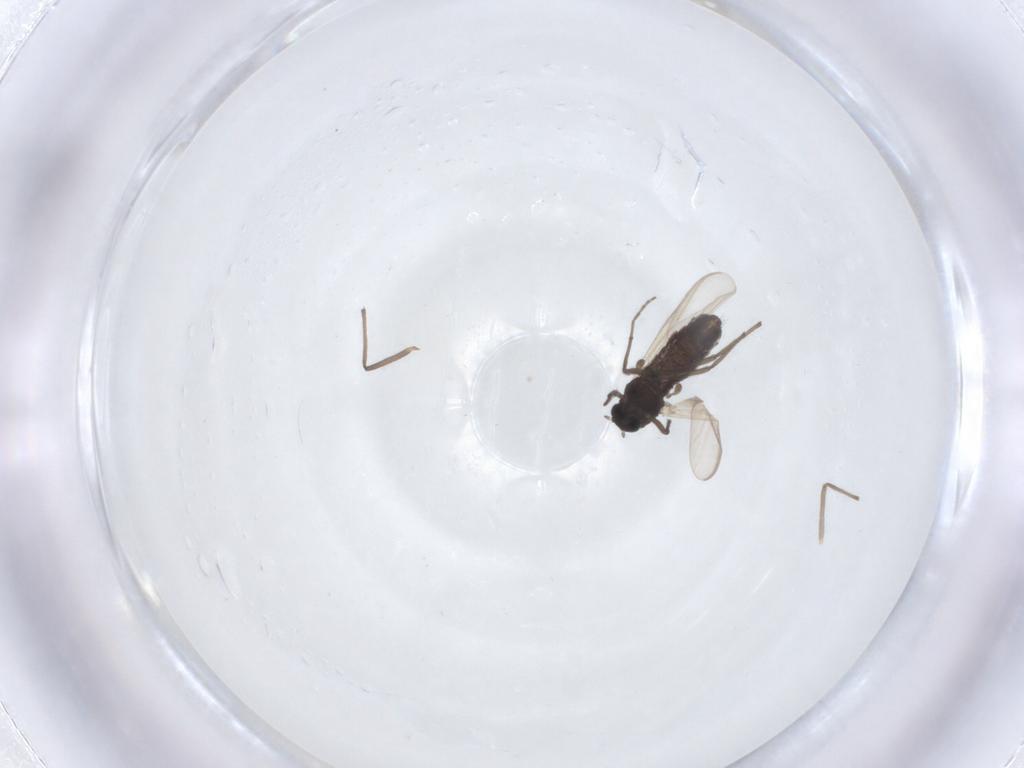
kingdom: Animalia
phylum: Arthropoda
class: Insecta
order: Diptera
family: Chironomidae
